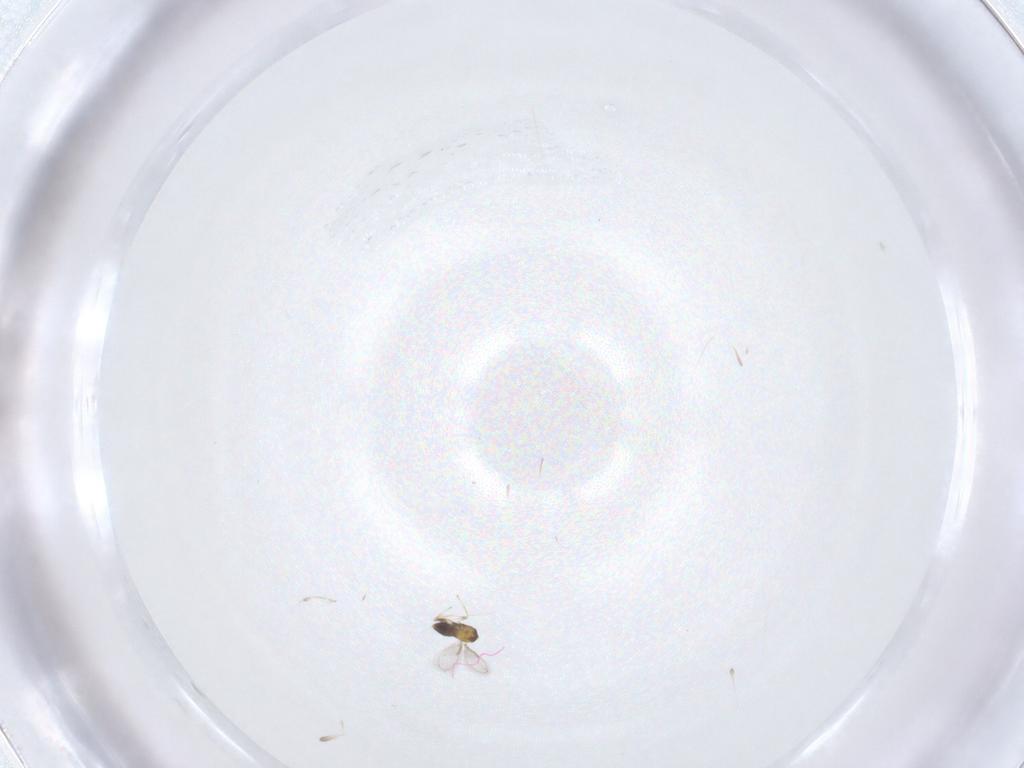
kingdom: Animalia
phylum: Arthropoda
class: Insecta
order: Hymenoptera
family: Aphelinidae
